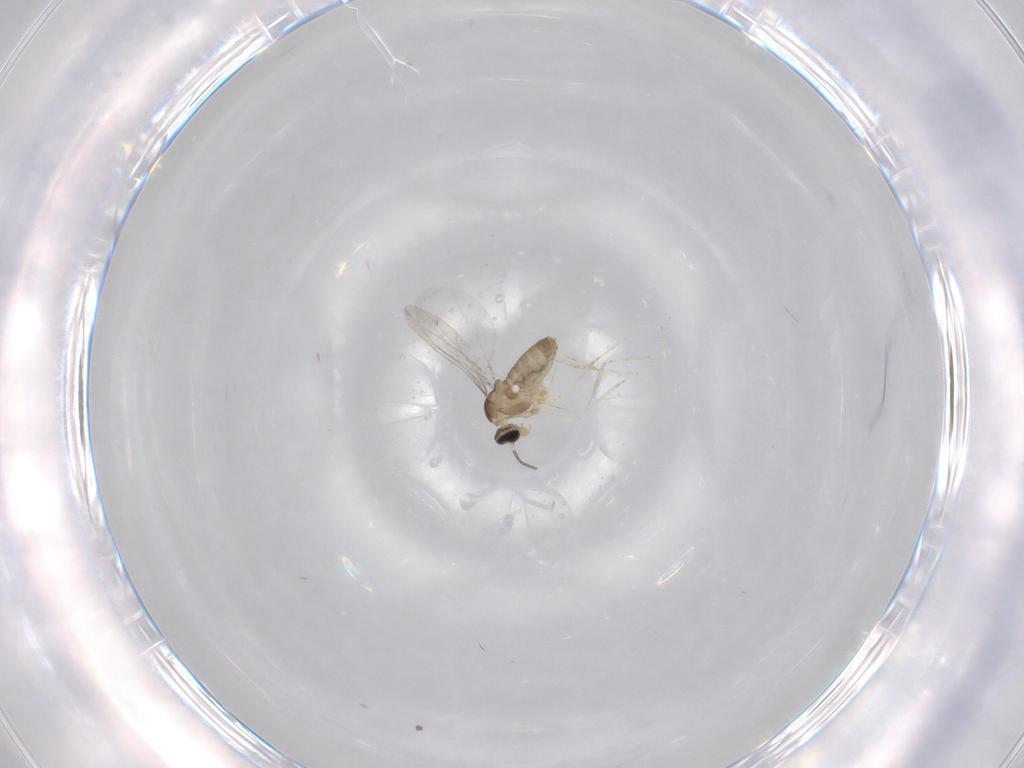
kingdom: Animalia
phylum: Arthropoda
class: Insecta
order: Diptera
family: Cecidomyiidae
